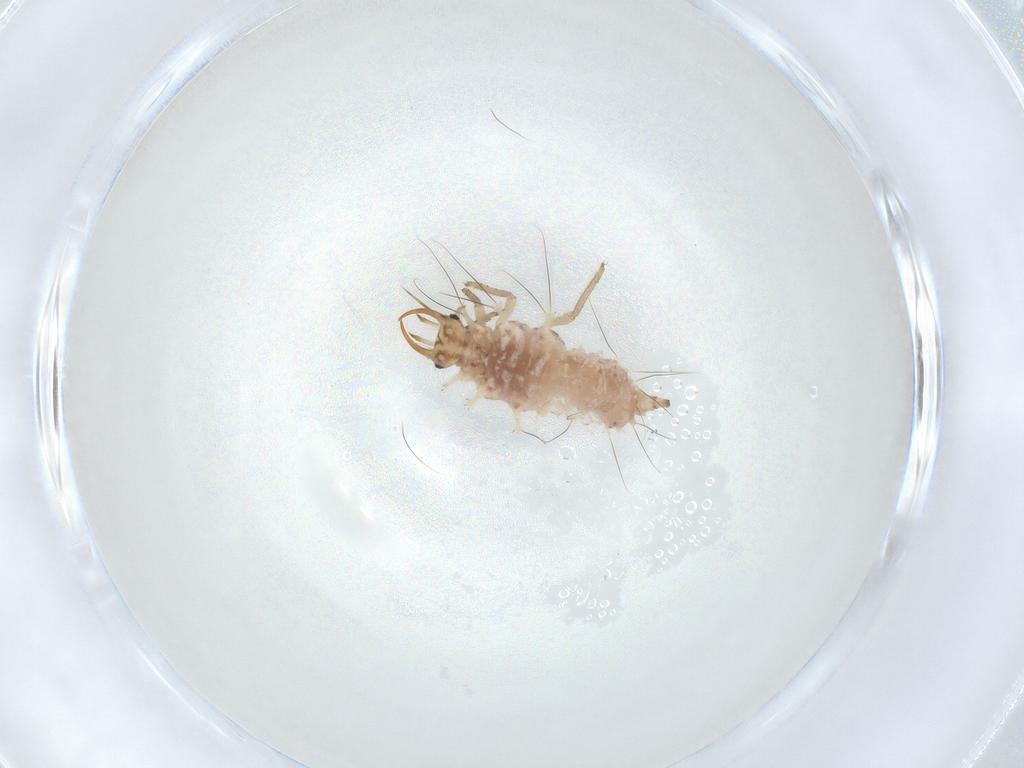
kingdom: Animalia
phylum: Arthropoda
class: Insecta
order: Neuroptera
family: Chrysopidae
